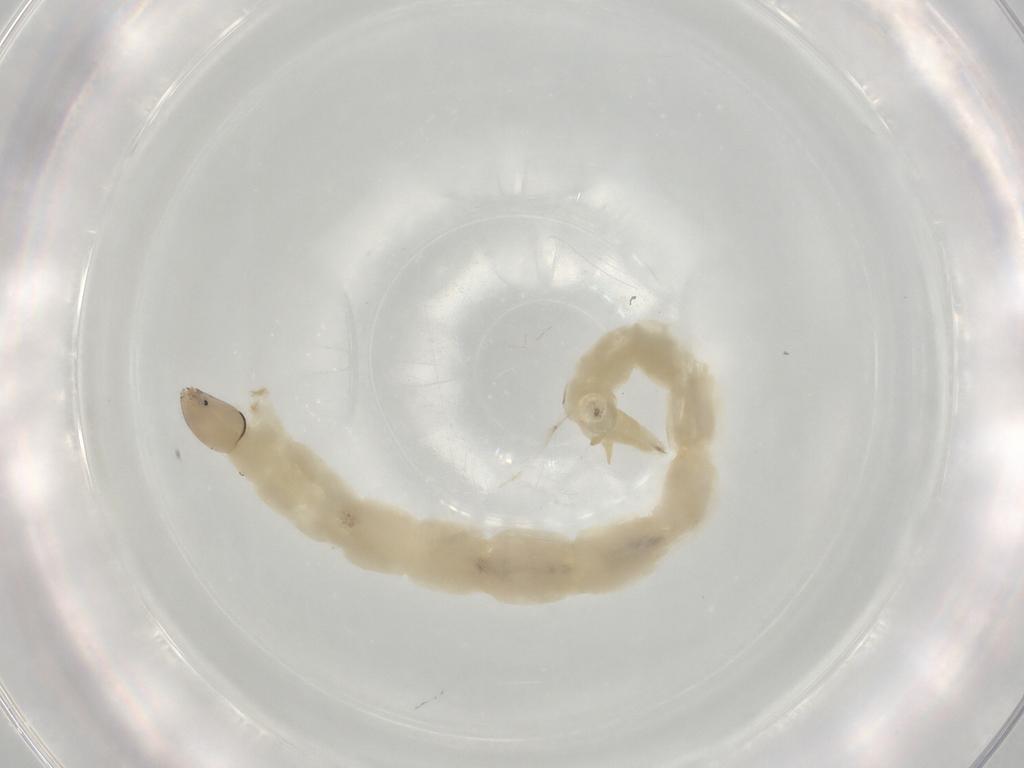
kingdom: Animalia
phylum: Arthropoda
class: Insecta
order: Diptera
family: Chironomidae
